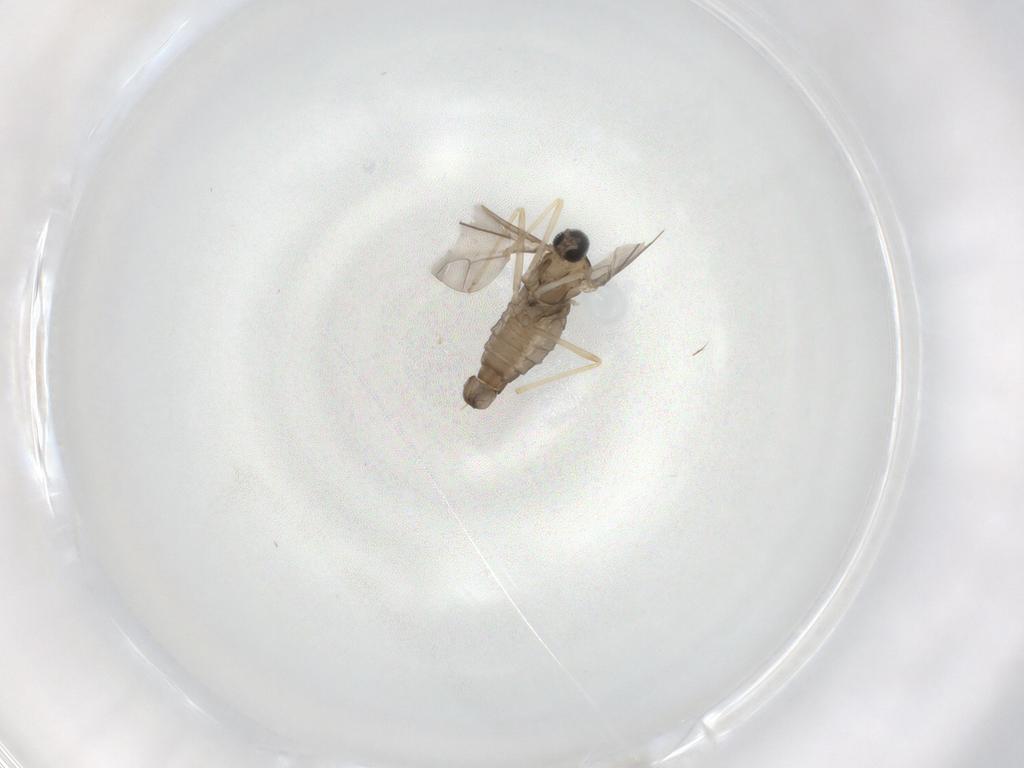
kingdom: Animalia
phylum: Arthropoda
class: Insecta
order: Diptera
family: Cecidomyiidae
